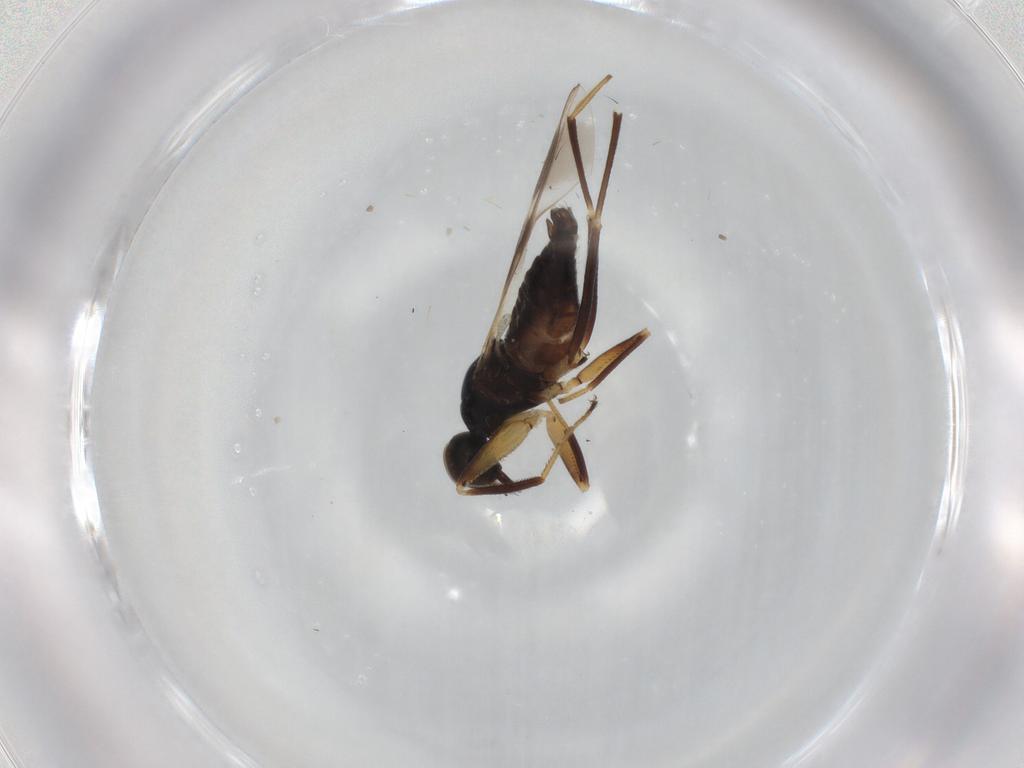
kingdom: Animalia
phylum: Arthropoda
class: Insecta
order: Diptera
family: Hybotidae
